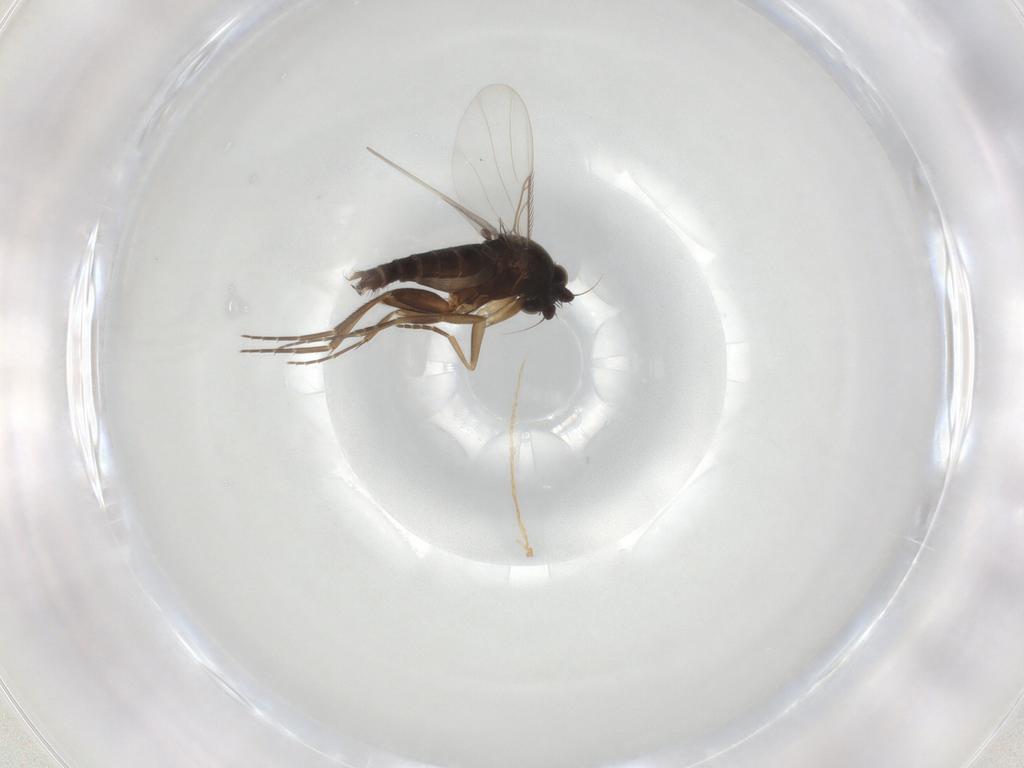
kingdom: Animalia
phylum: Arthropoda
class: Insecta
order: Diptera
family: Phoridae
